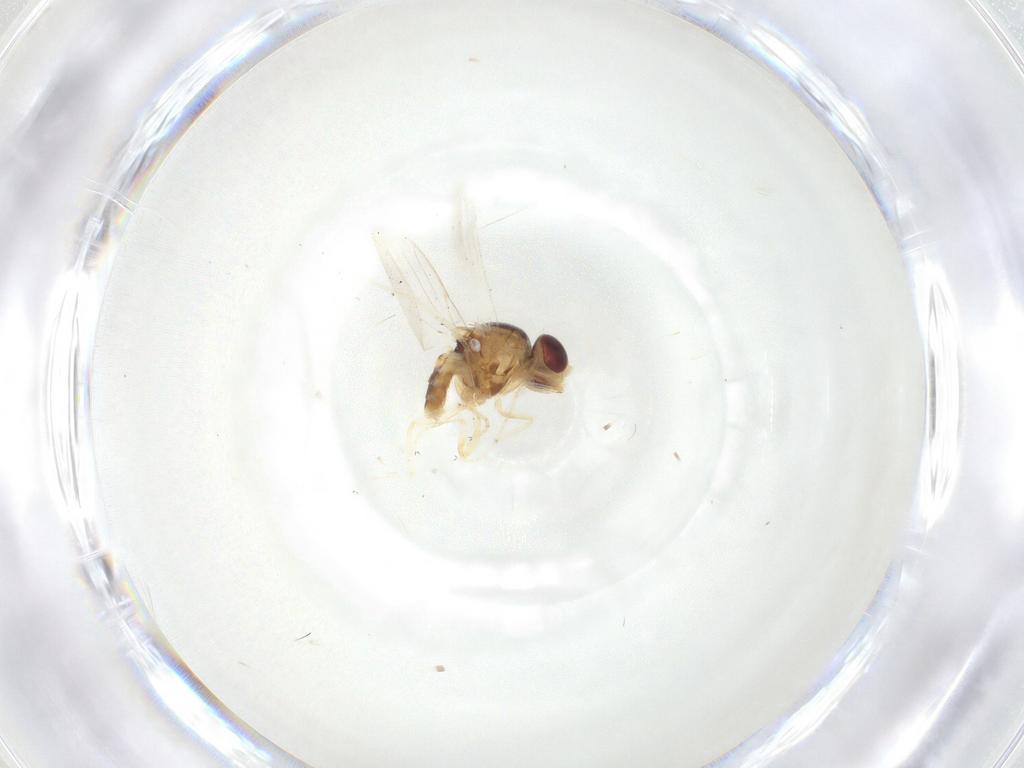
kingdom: Animalia
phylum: Arthropoda
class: Insecta
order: Diptera
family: Chloropidae
